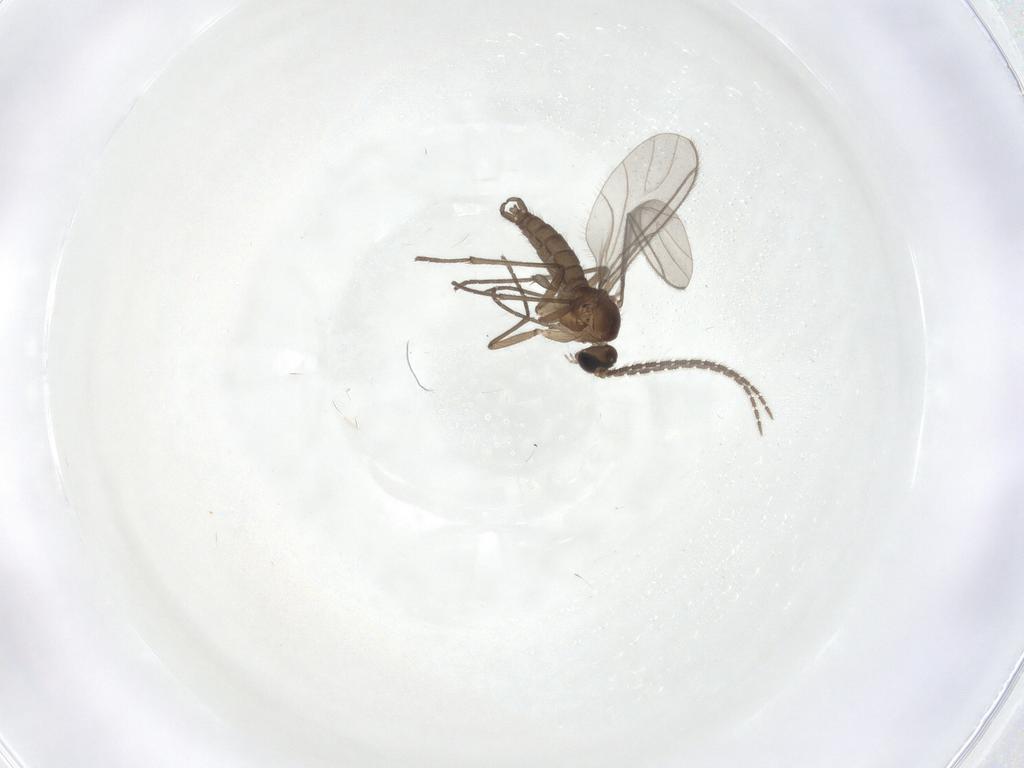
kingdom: Animalia
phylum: Arthropoda
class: Insecta
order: Diptera
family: Sciaridae
